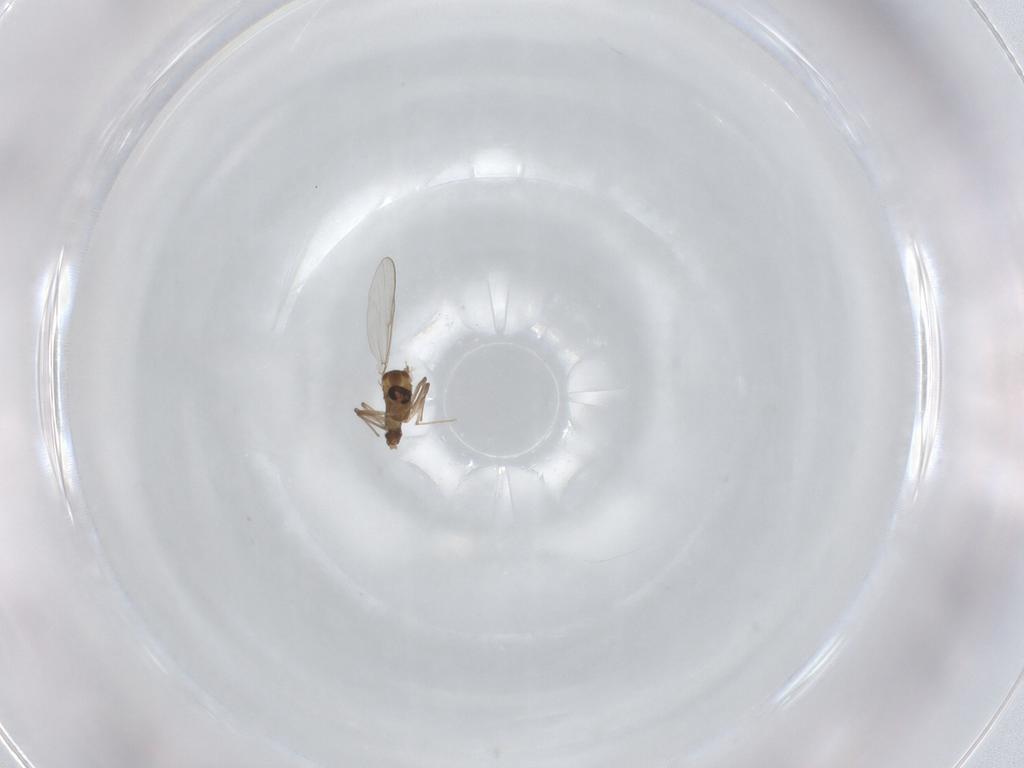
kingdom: Animalia
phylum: Arthropoda
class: Insecta
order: Diptera
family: Chironomidae
